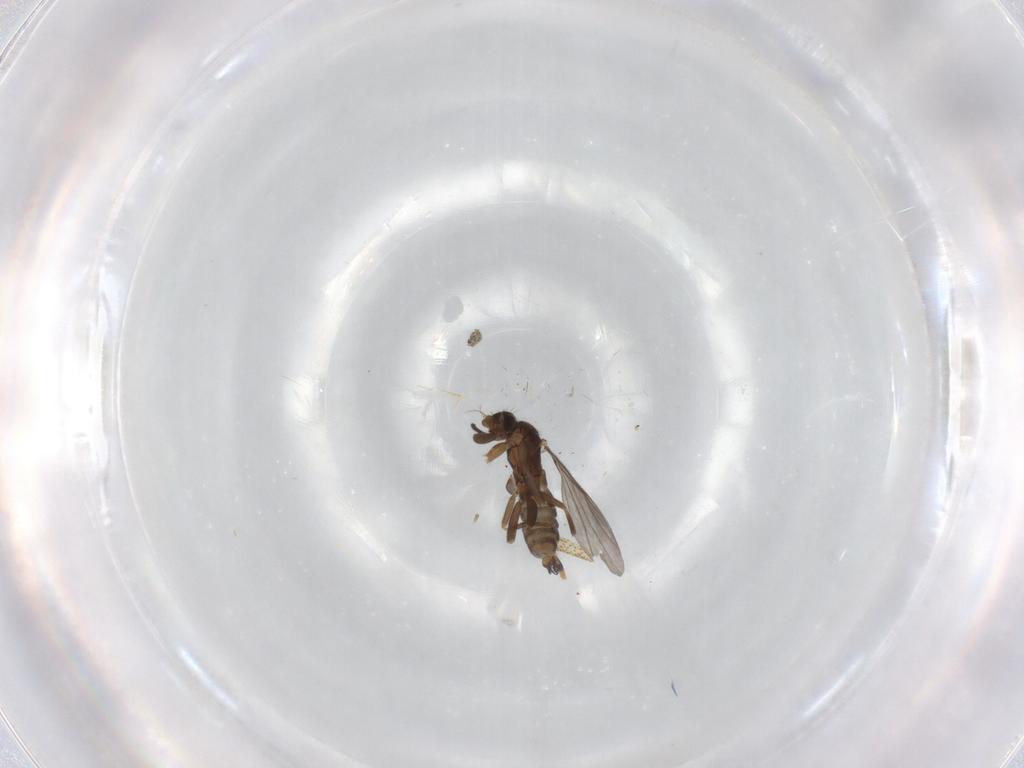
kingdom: Animalia
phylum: Arthropoda
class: Insecta
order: Diptera
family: Muscidae
